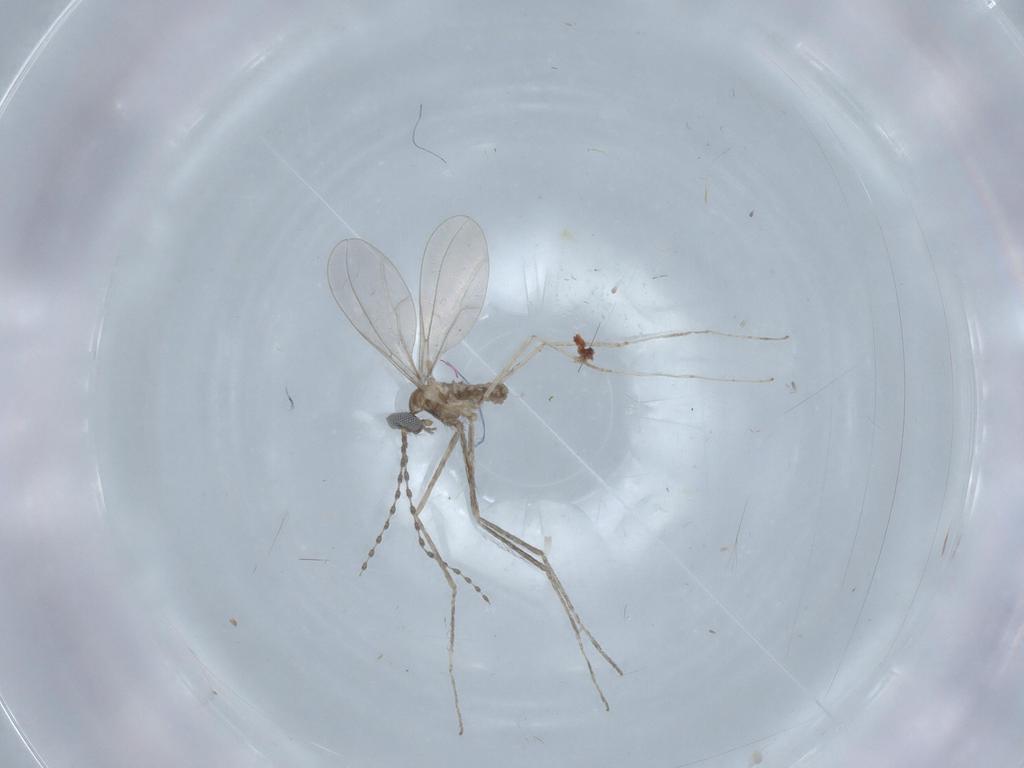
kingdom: Animalia
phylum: Arthropoda
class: Insecta
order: Diptera
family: Cecidomyiidae
